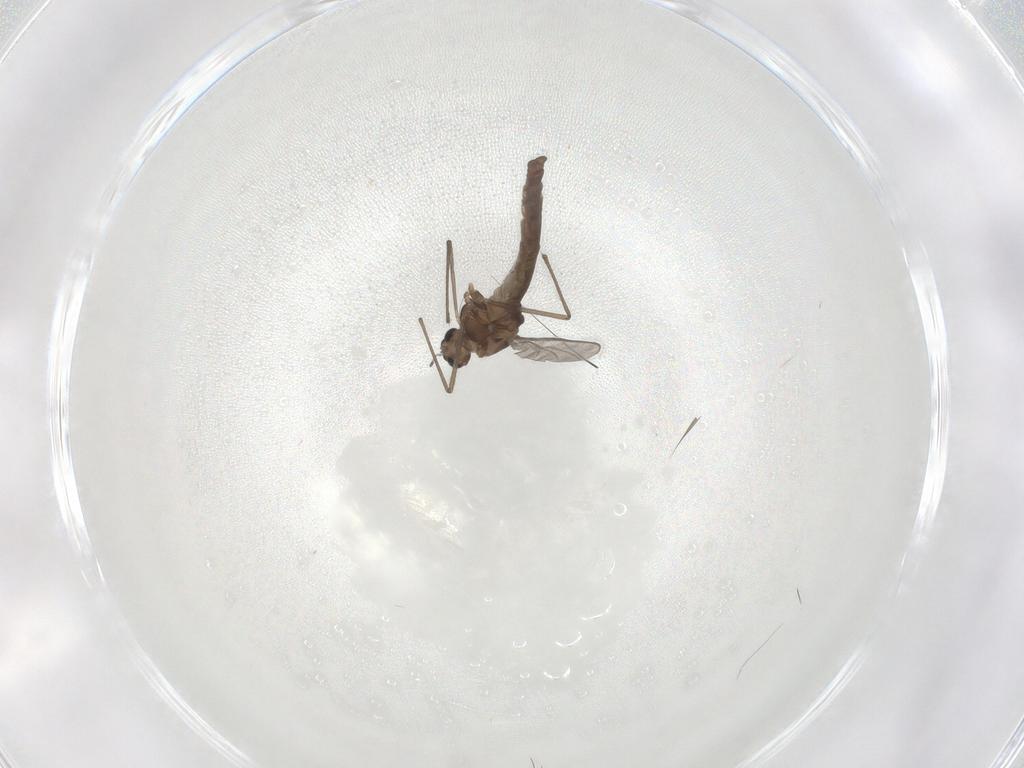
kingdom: Animalia
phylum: Arthropoda
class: Insecta
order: Diptera
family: Chironomidae
